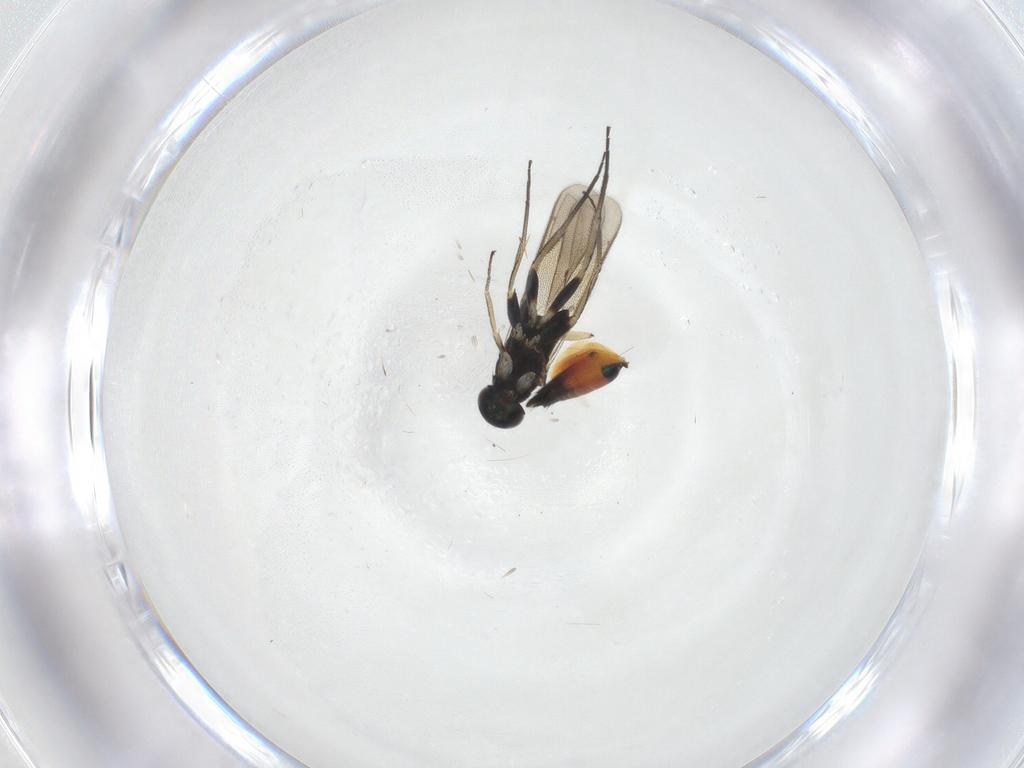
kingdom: Animalia
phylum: Arthropoda
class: Insecta
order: Hymenoptera
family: Eulophidae
